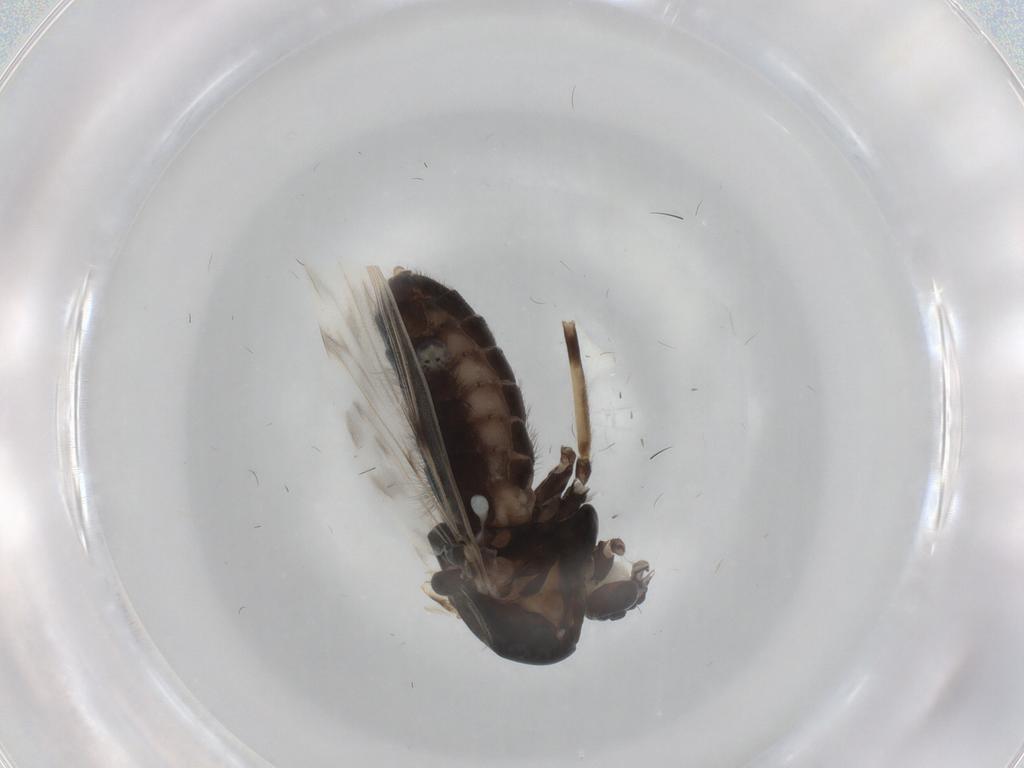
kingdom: Animalia
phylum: Arthropoda
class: Insecta
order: Diptera
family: Chironomidae
